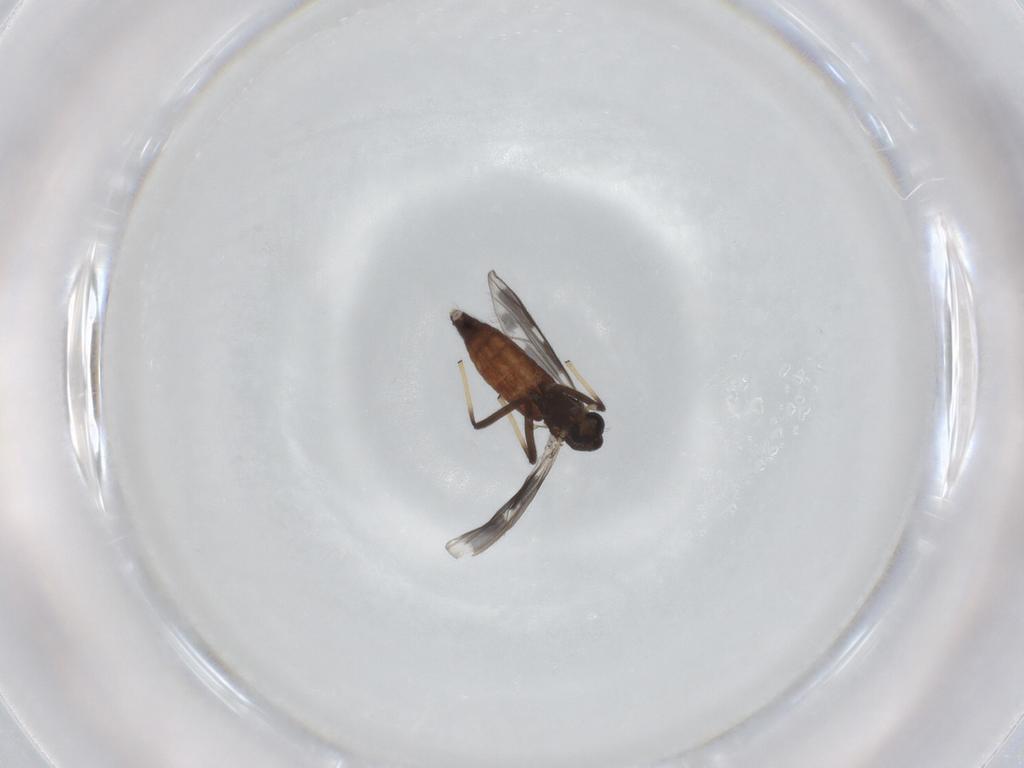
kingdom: Animalia
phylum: Arthropoda
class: Insecta
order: Diptera
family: Chironomidae
